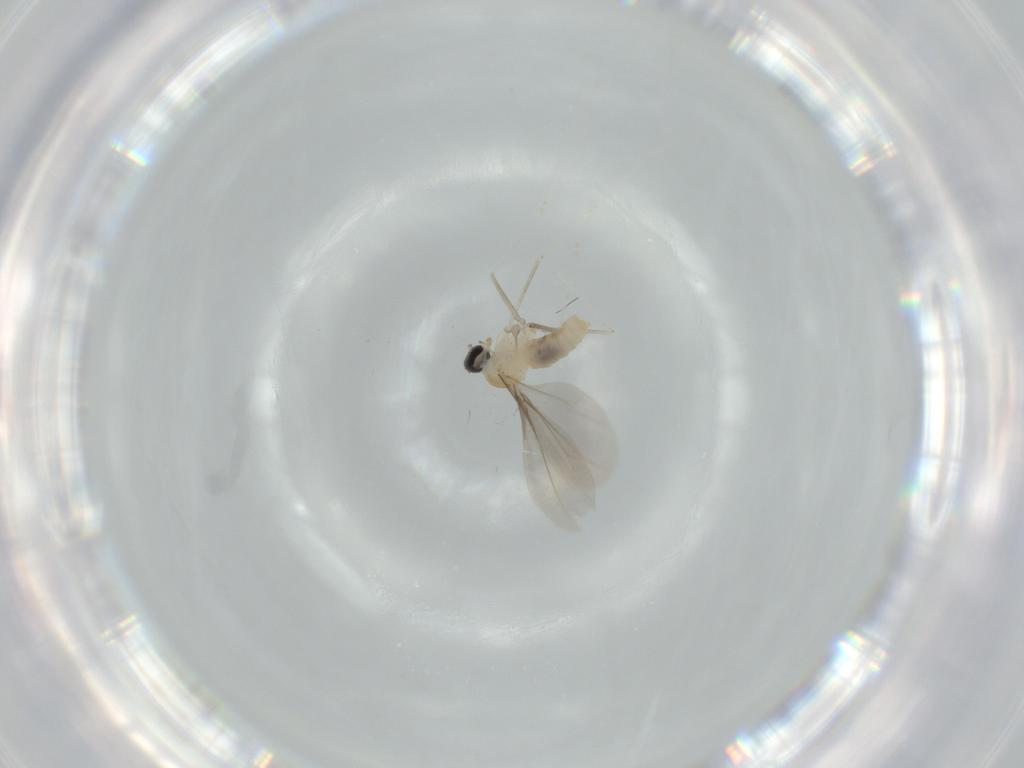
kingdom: Animalia
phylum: Arthropoda
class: Insecta
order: Diptera
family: Cecidomyiidae
